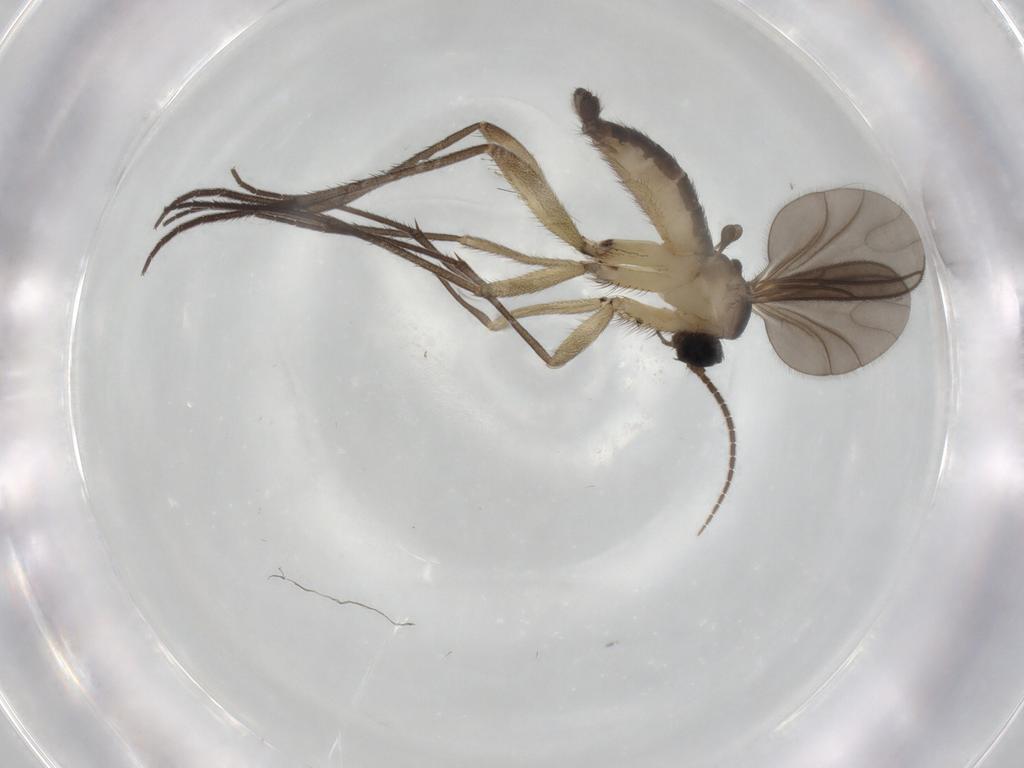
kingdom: Animalia
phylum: Arthropoda
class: Insecta
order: Diptera
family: Sciaridae
